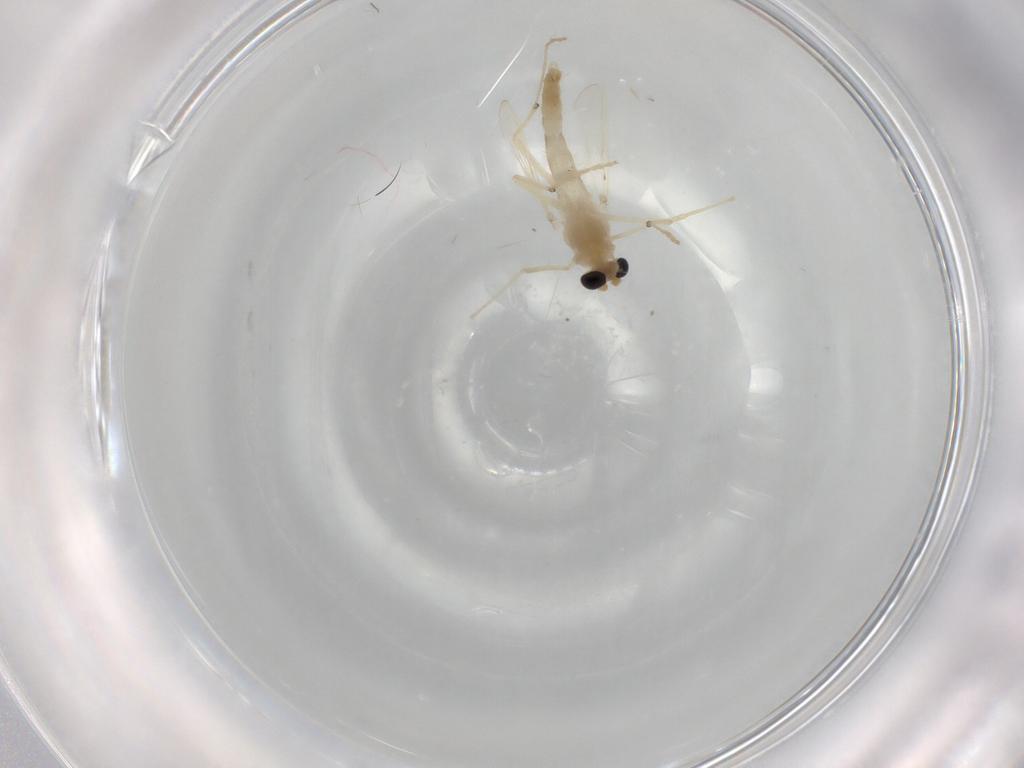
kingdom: Animalia
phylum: Arthropoda
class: Insecta
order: Diptera
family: Chironomidae
